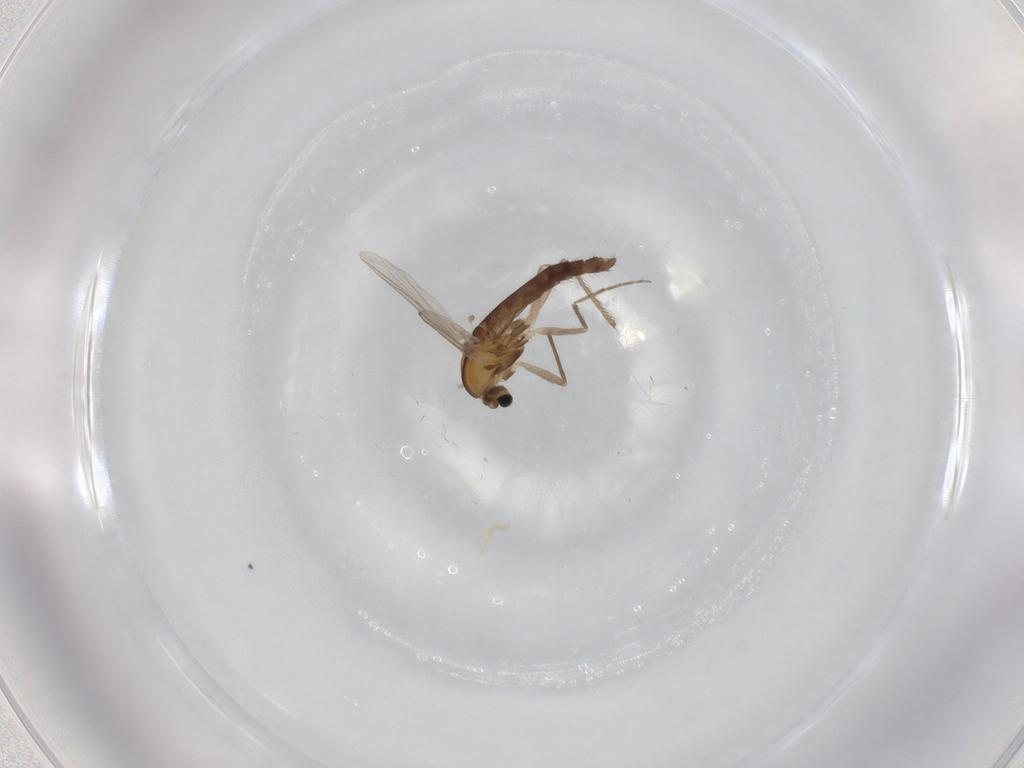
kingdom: Animalia
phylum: Arthropoda
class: Insecta
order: Diptera
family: Chironomidae
